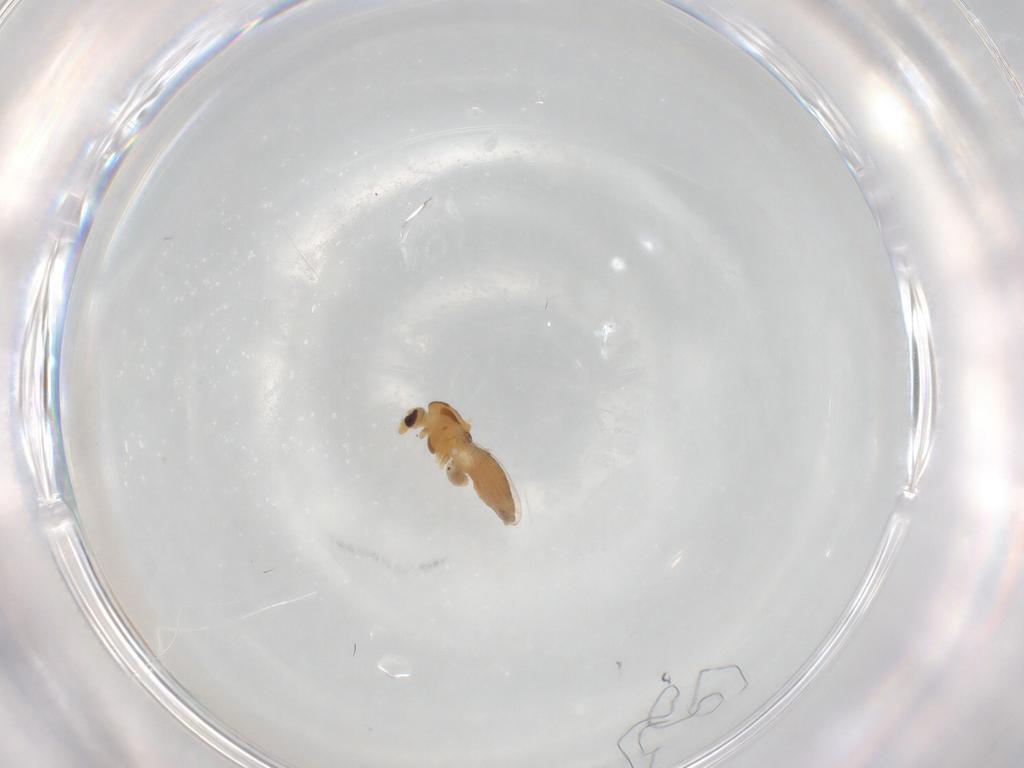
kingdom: Animalia
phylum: Arthropoda
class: Insecta
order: Diptera
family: Chironomidae
